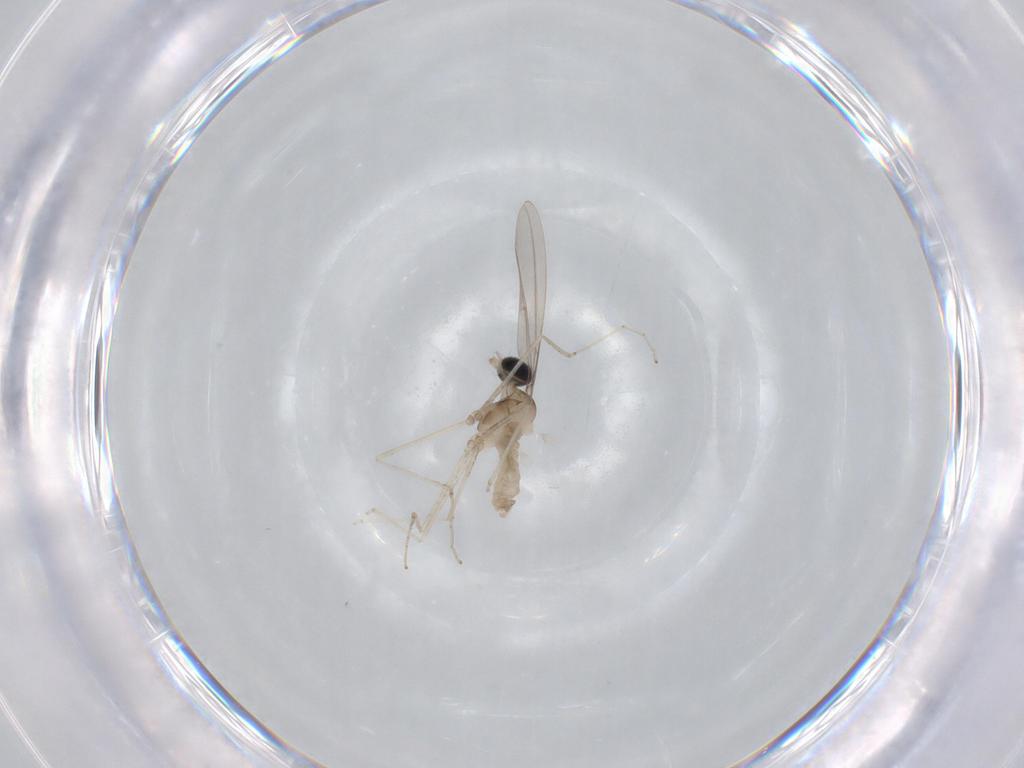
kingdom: Animalia
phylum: Arthropoda
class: Insecta
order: Diptera
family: Cecidomyiidae
